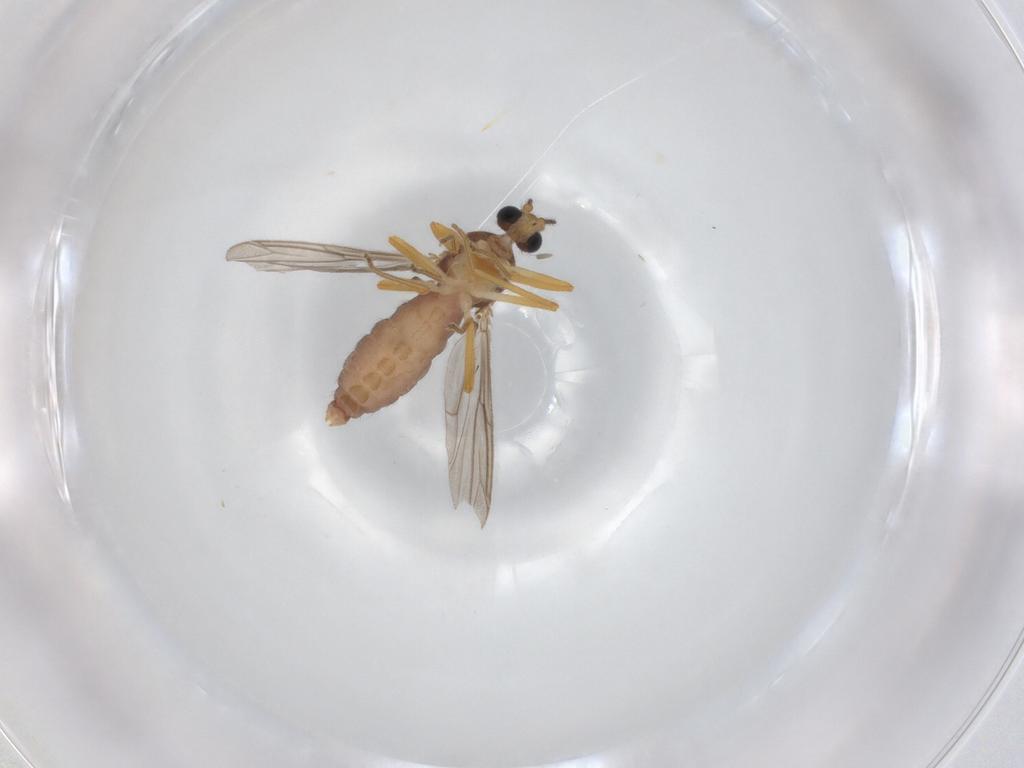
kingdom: Animalia
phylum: Arthropoda
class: Insecta
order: Diptera
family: Ceratopogonidae
